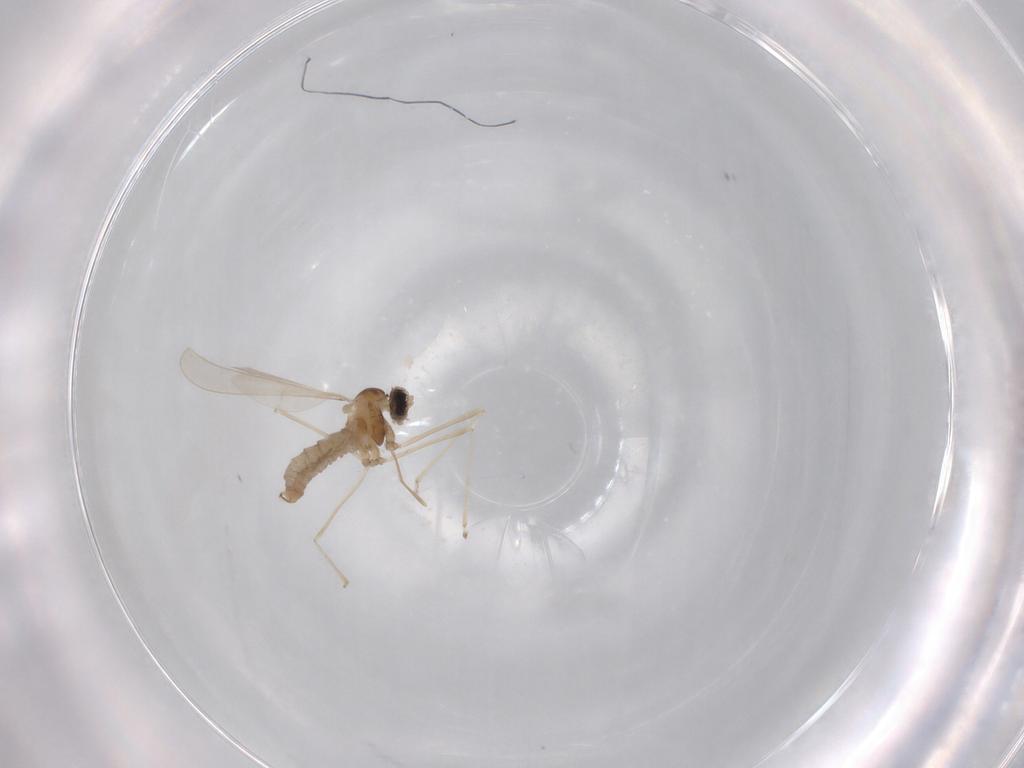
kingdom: Animalia
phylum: Arthropoda
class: Insecta
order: Diptera
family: Cecidomyiidae
